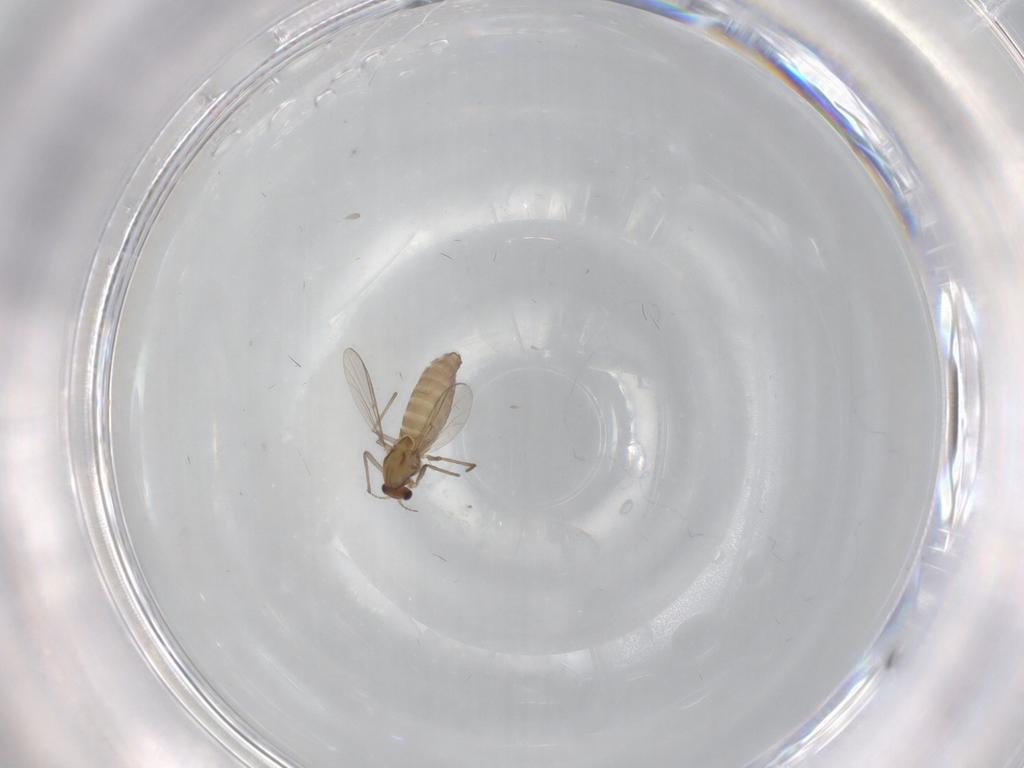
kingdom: Animalia
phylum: Arthropoda
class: Insecta
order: Diptera
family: Chironomidae
